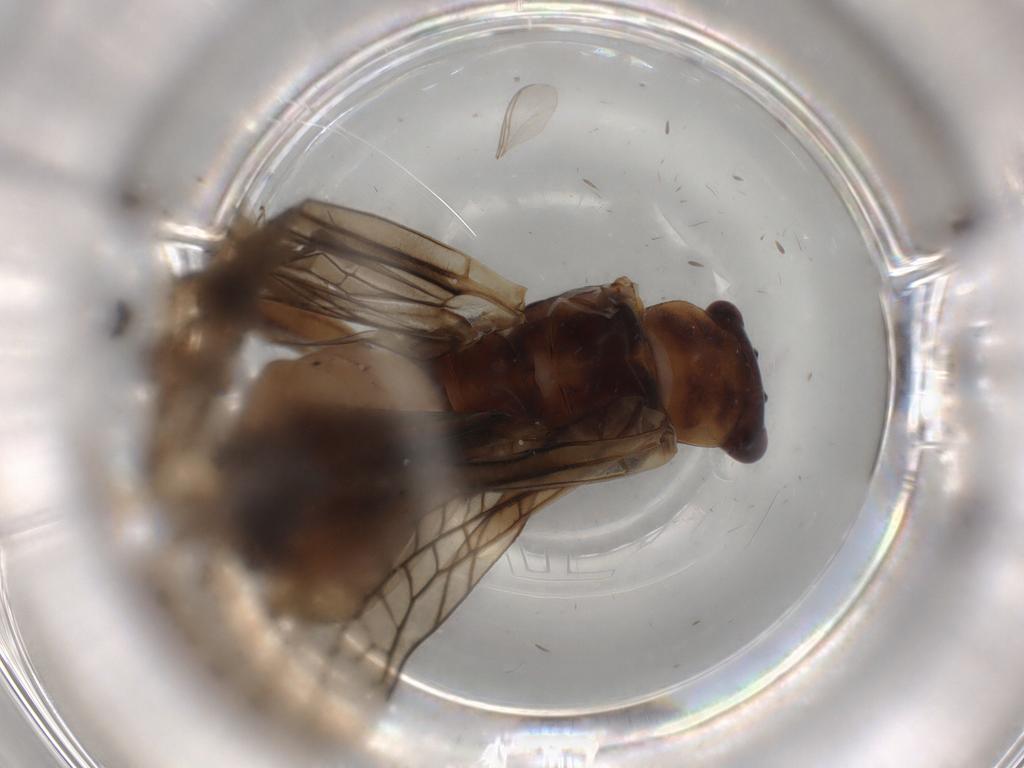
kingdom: Animalia
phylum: Arthropoda
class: Insecta
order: Plecoptera
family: Nemouridae
